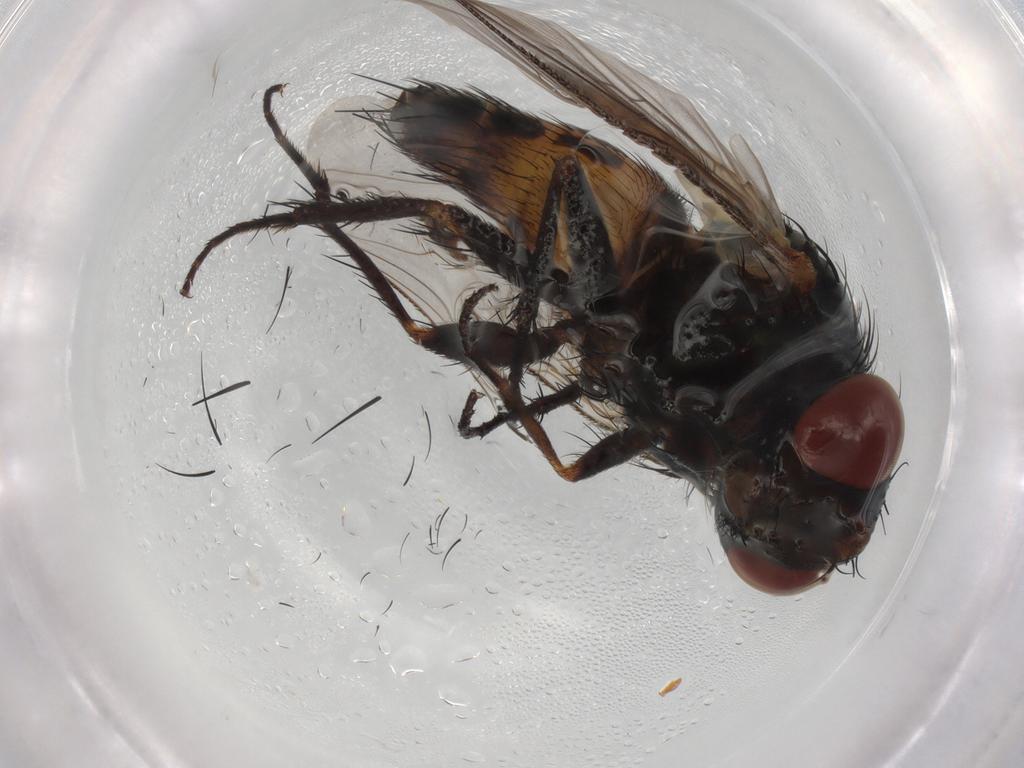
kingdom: Animalia
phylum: Arthropoda
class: Insecta
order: Diptera
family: Sarcophagidae
